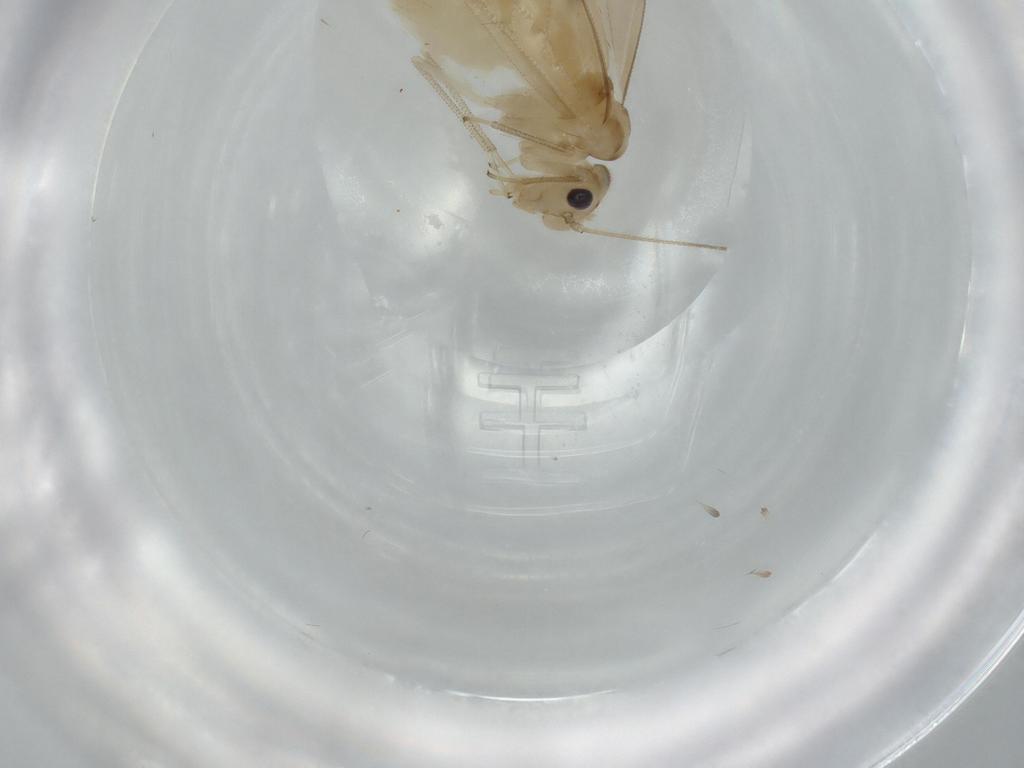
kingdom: Animalia
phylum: Arthropoda
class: Insecta
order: Psocodea
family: Caeciliusidae
